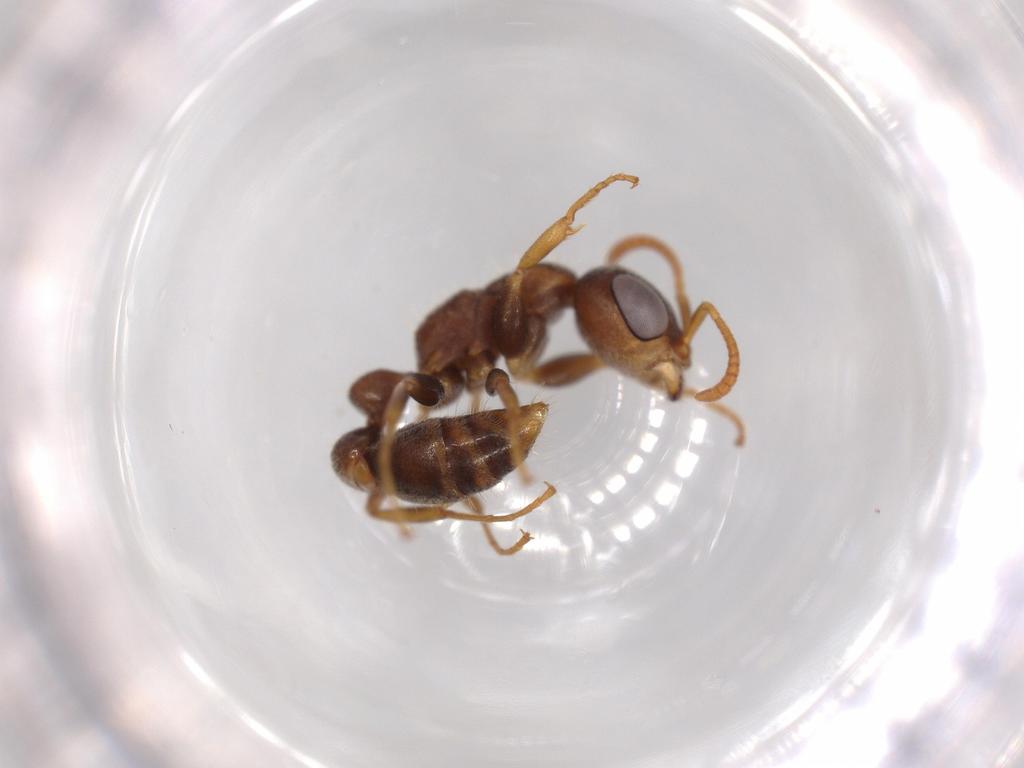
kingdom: Animalia
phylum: Arthropoda
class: Insecta
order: Hymenoptera
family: Formicidae
